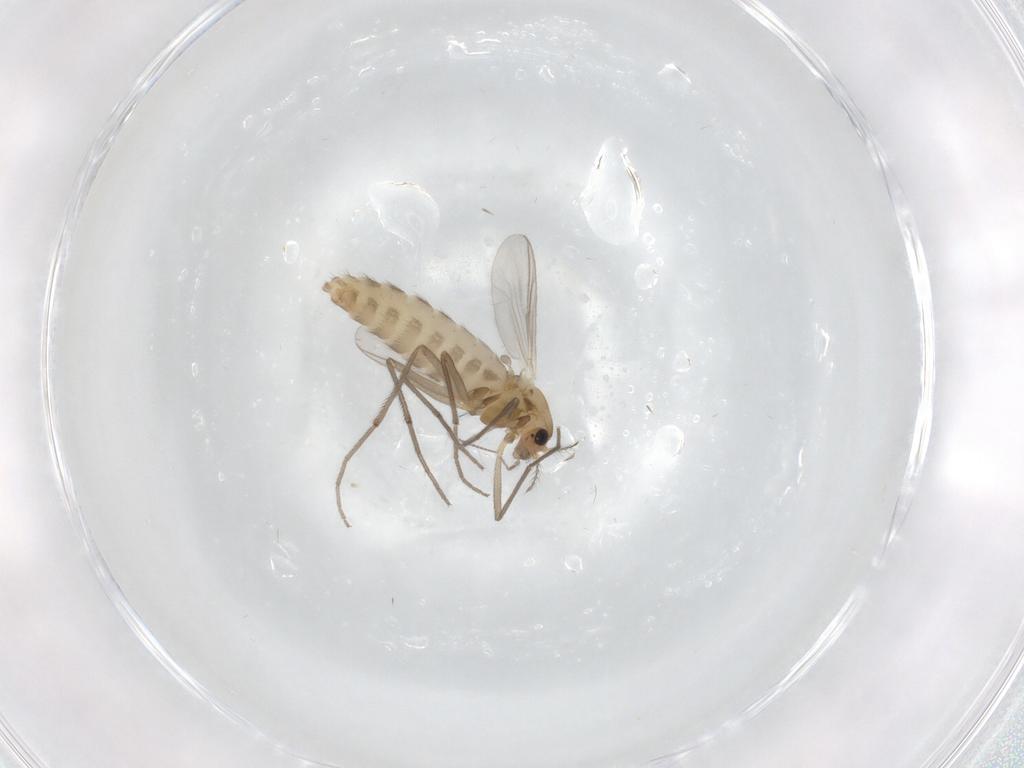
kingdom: Animalia
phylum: Arthropoda
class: Insecta
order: Diptera
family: Chironomidae
